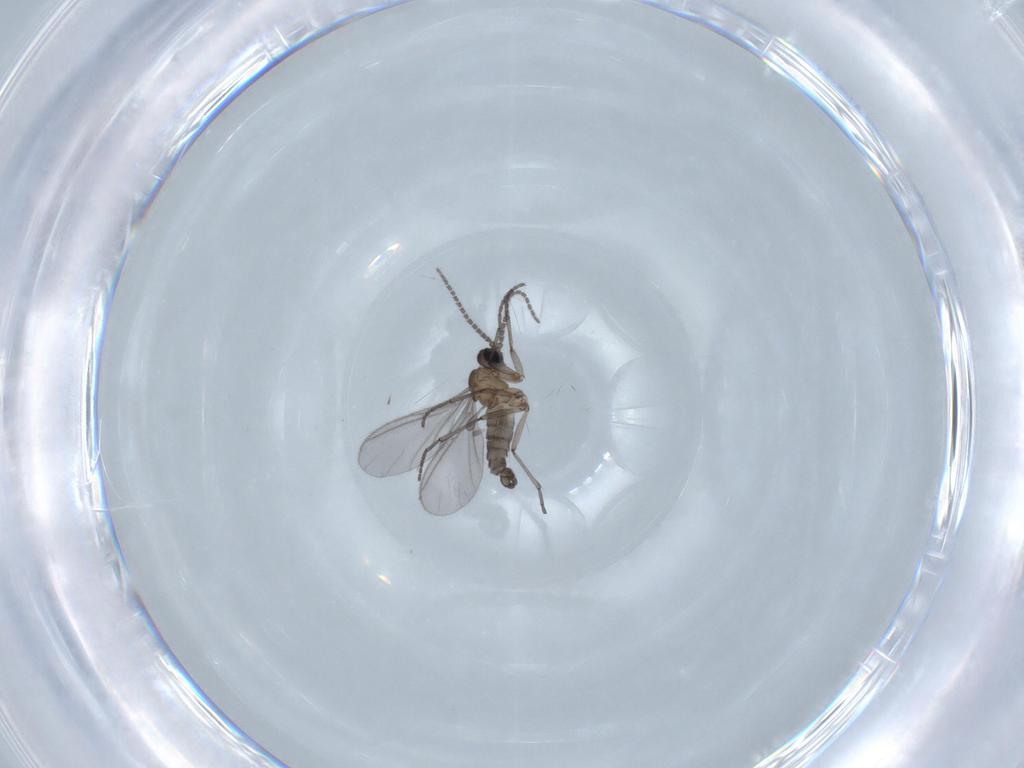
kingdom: Animalia
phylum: Arthropoda
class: Insecta
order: Diptera
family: Sciaridae
